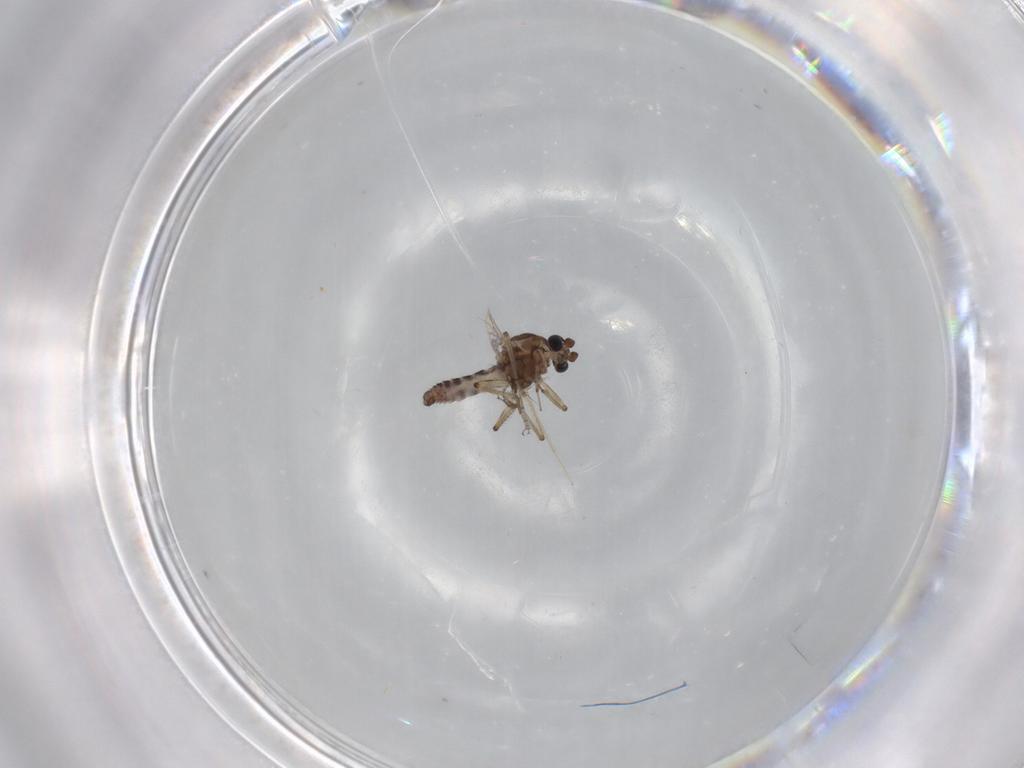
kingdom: Animalia
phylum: Arthropoda
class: Insecta
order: Diptera
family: Ceratopogonidae
